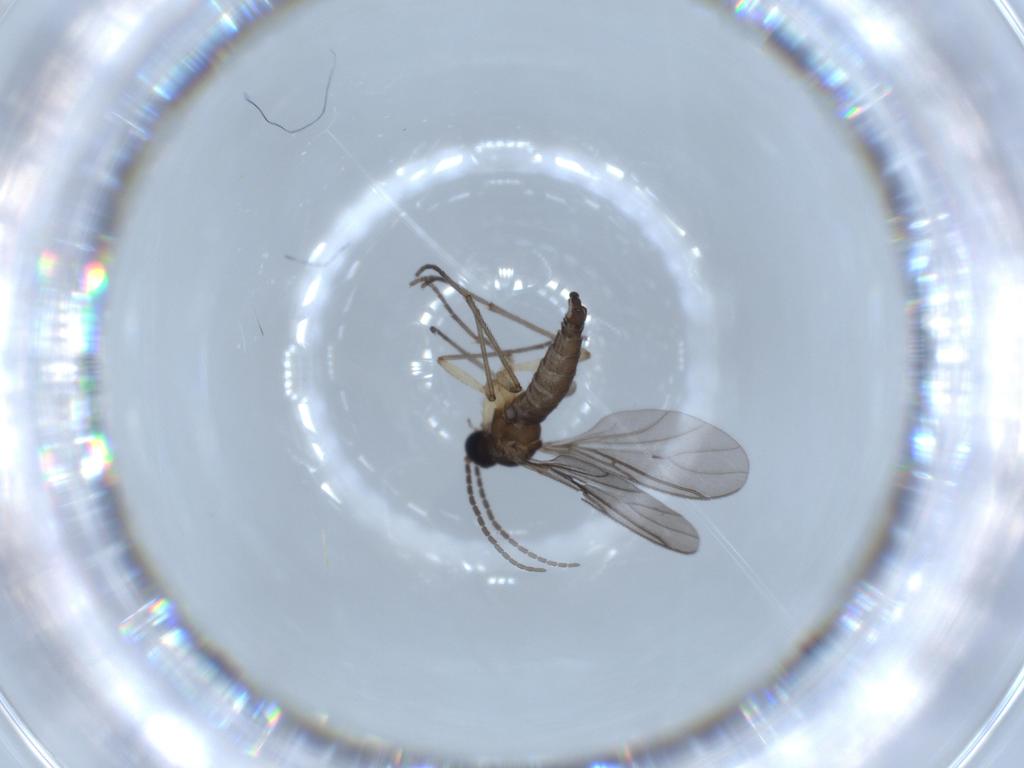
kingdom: Animalia
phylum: Arthropoda
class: Insecta
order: Diptera
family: Sciaridae
